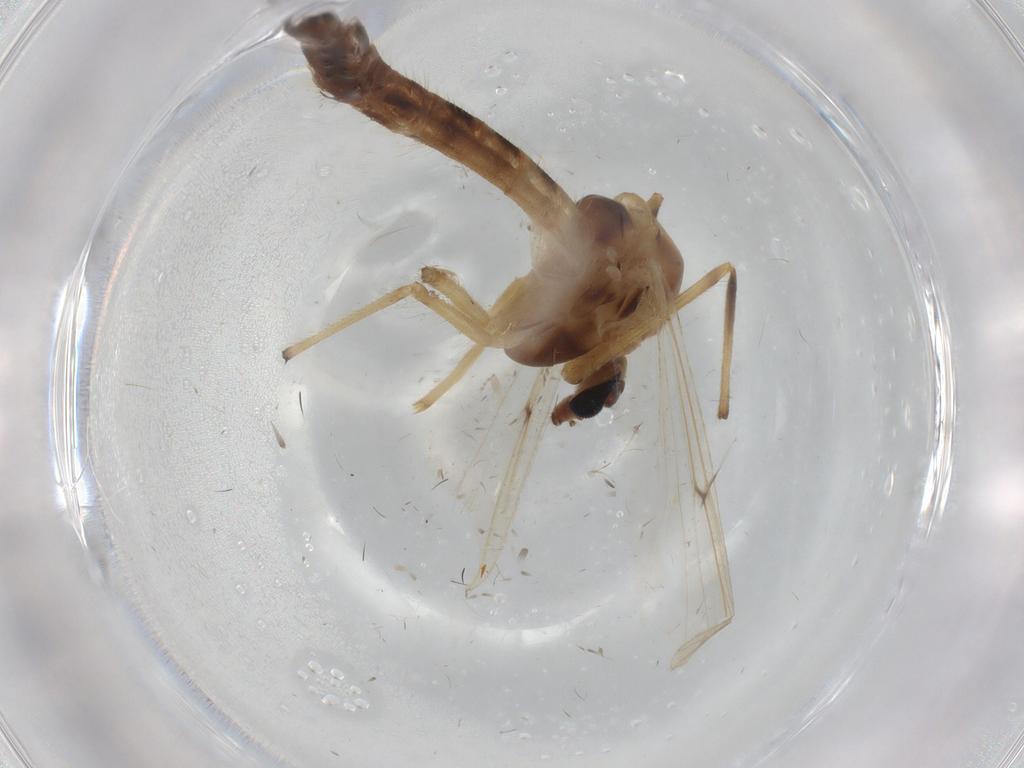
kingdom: Animalia
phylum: Arthropoda
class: Insecta
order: Diptera
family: Chironomidae
